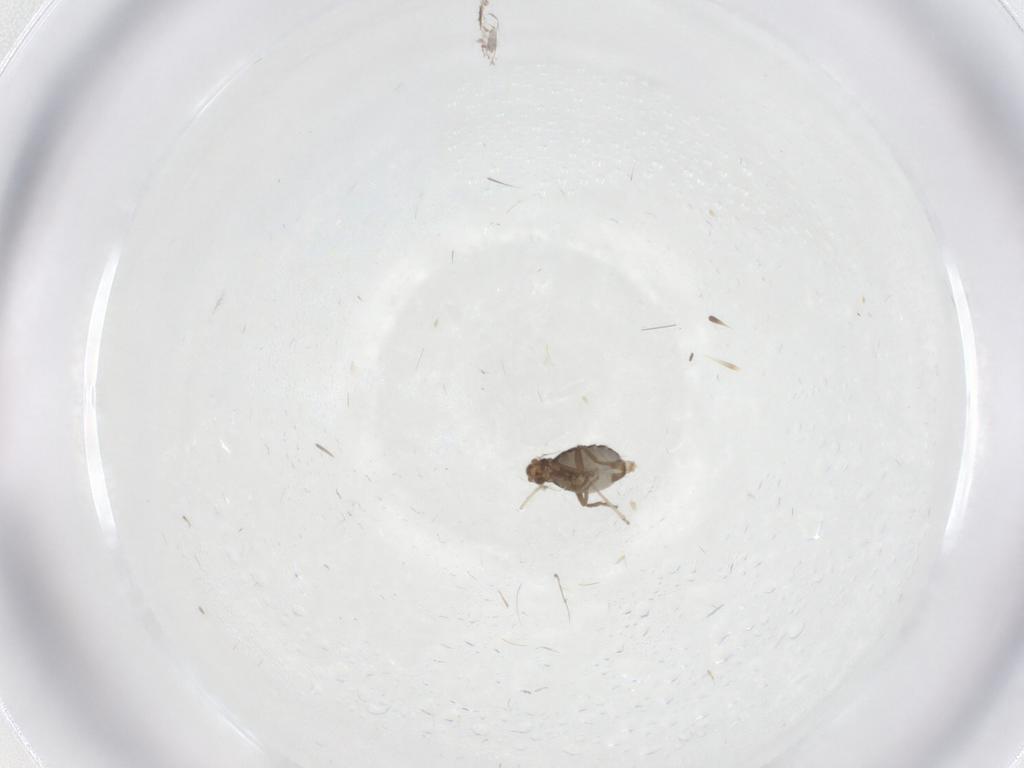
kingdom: Animalia
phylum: Arthropoda
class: Insecta
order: Diptera
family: Phoridae
